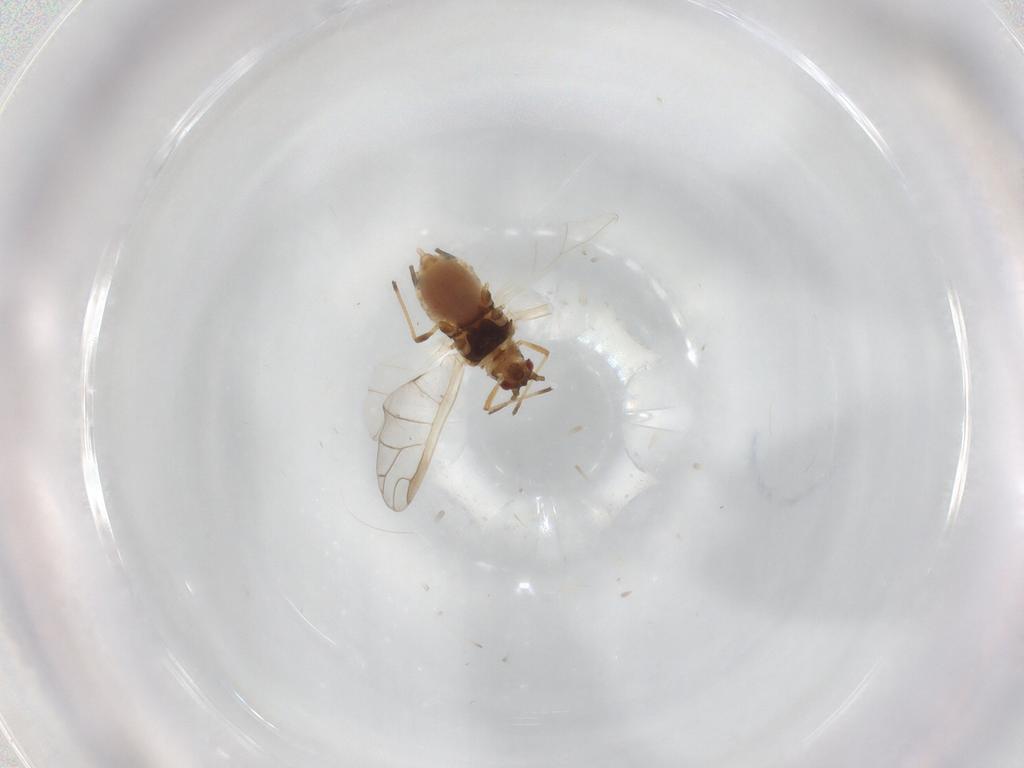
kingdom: Animalia
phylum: Arthropoda
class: Insecta
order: Hemiptera
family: Aphididae
